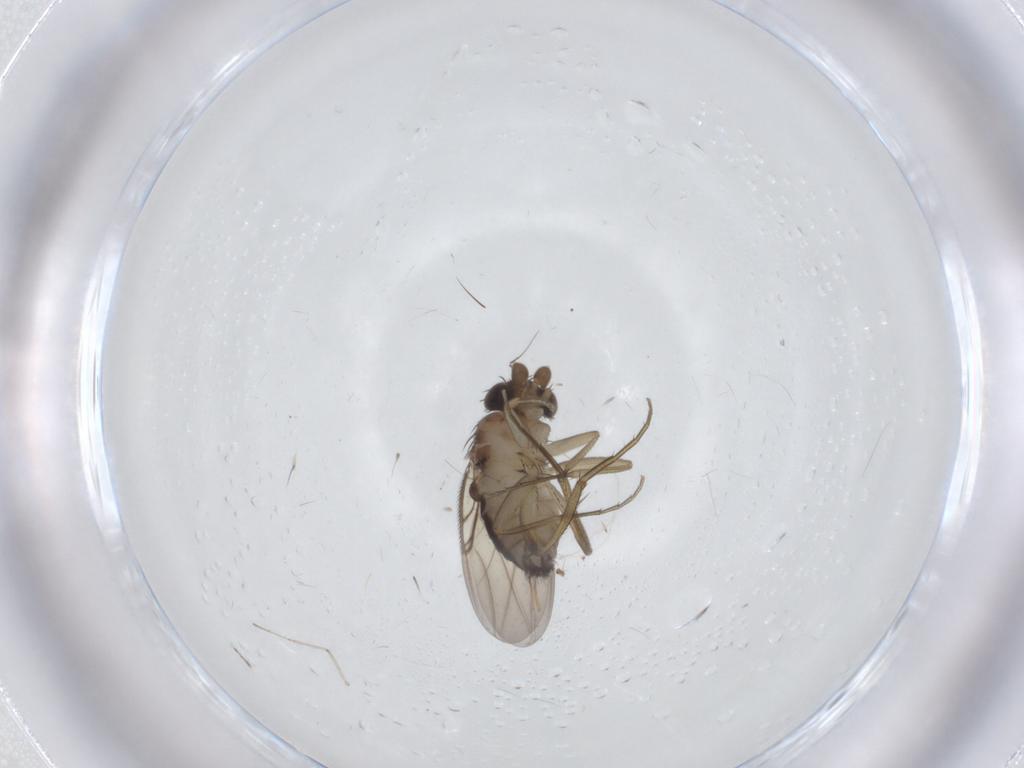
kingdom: Animalia
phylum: Arthropoda
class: Insecta
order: Diptera
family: Phoridae
